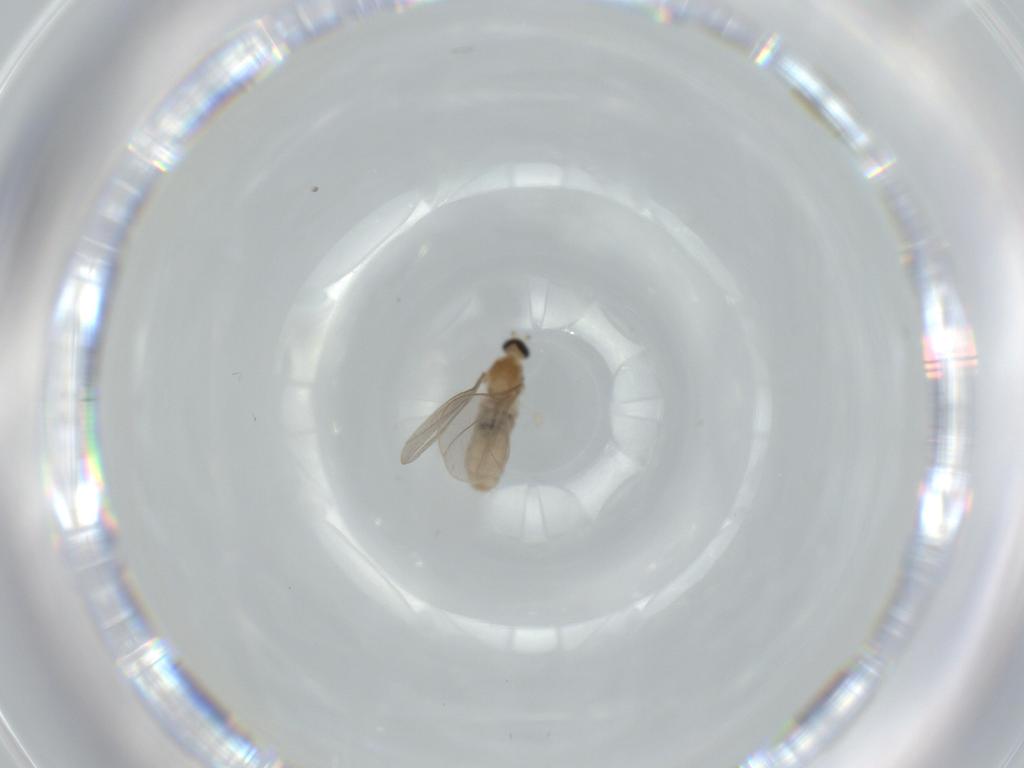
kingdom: Animalia
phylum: Arthropoda
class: Insecta
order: Diptera
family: Cecidomyiidae
